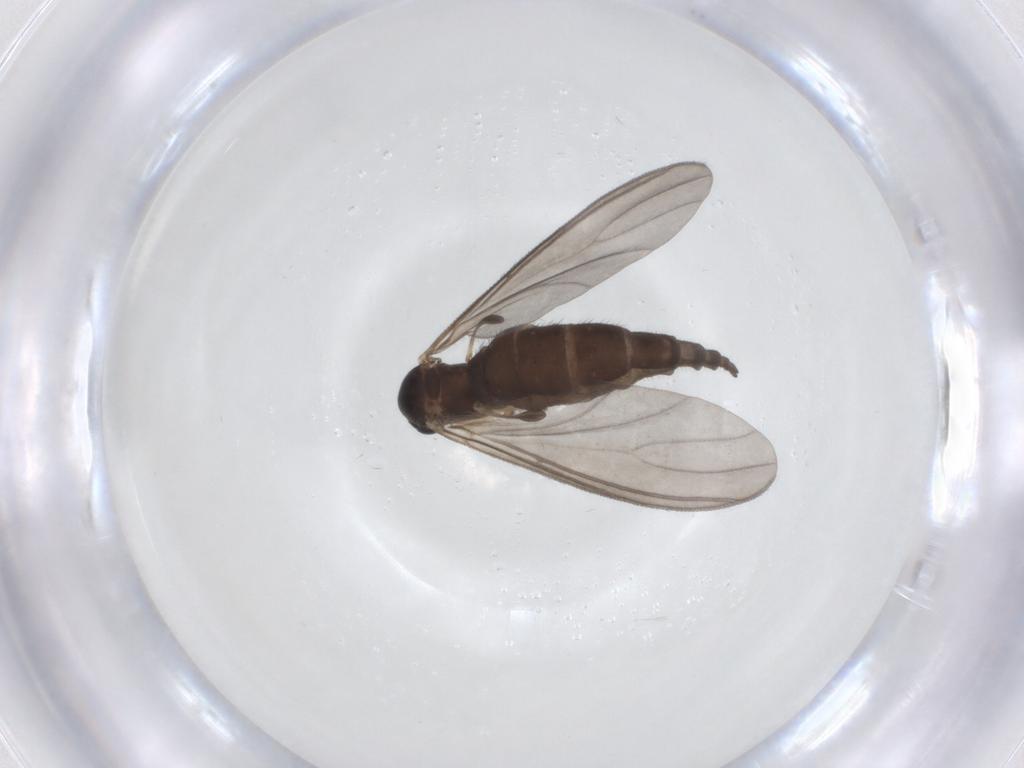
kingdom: Animalia
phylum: Arthropoda
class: Insecta
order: Diptera
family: Sciaridae
